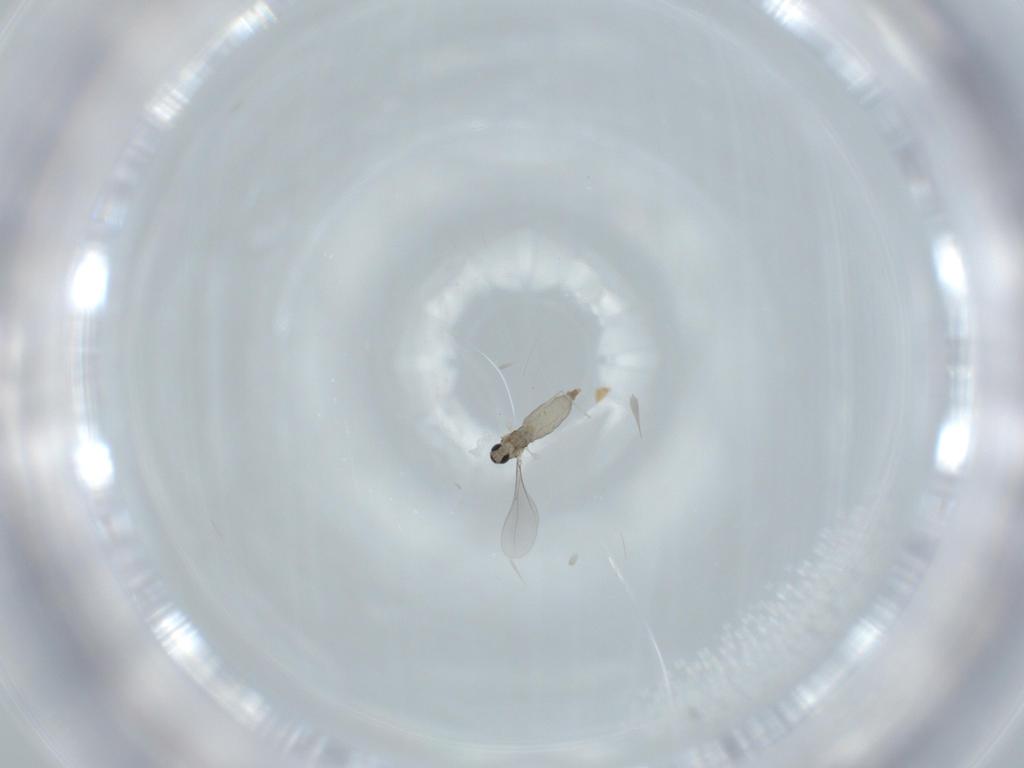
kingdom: Animalia
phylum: Arthropoda
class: Insecta
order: Diptera
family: Cecidomyiidae
